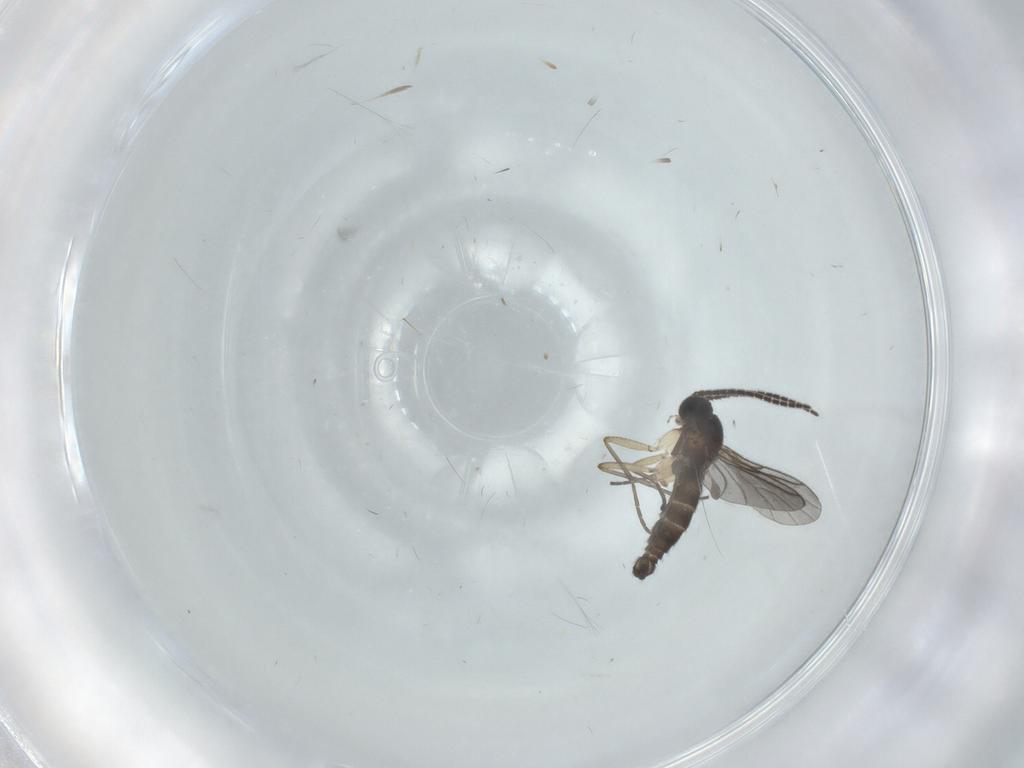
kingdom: Animalia
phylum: Arthropoda
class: Insecta
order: Diptera
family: Sciaridae
